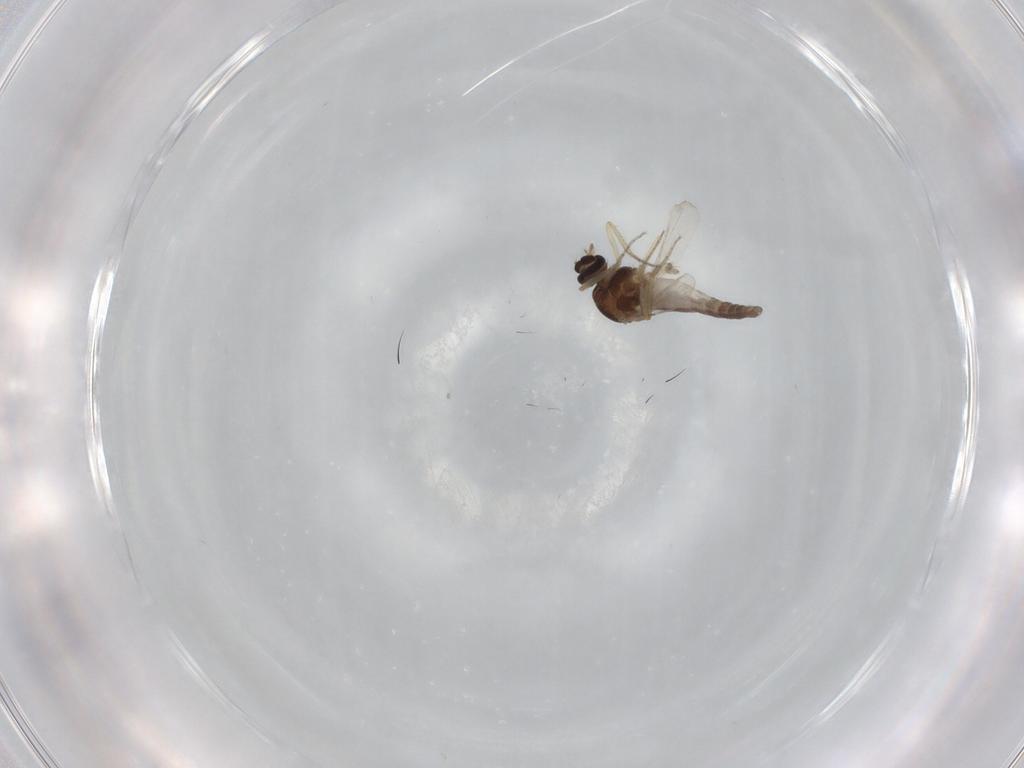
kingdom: Animalia
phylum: Arthropoda
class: Insecta
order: Diptera
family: Ceratopogonidae
